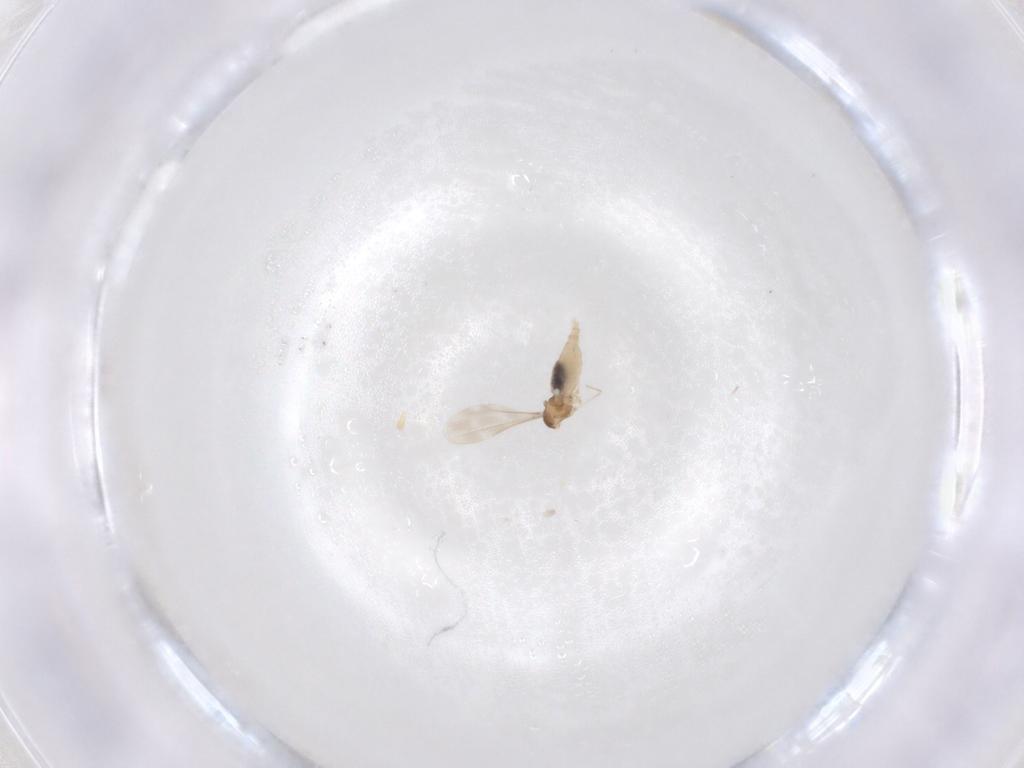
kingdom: Animalia
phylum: Arthropoda
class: Insecta
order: Diptera
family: Cecidomyiidae
